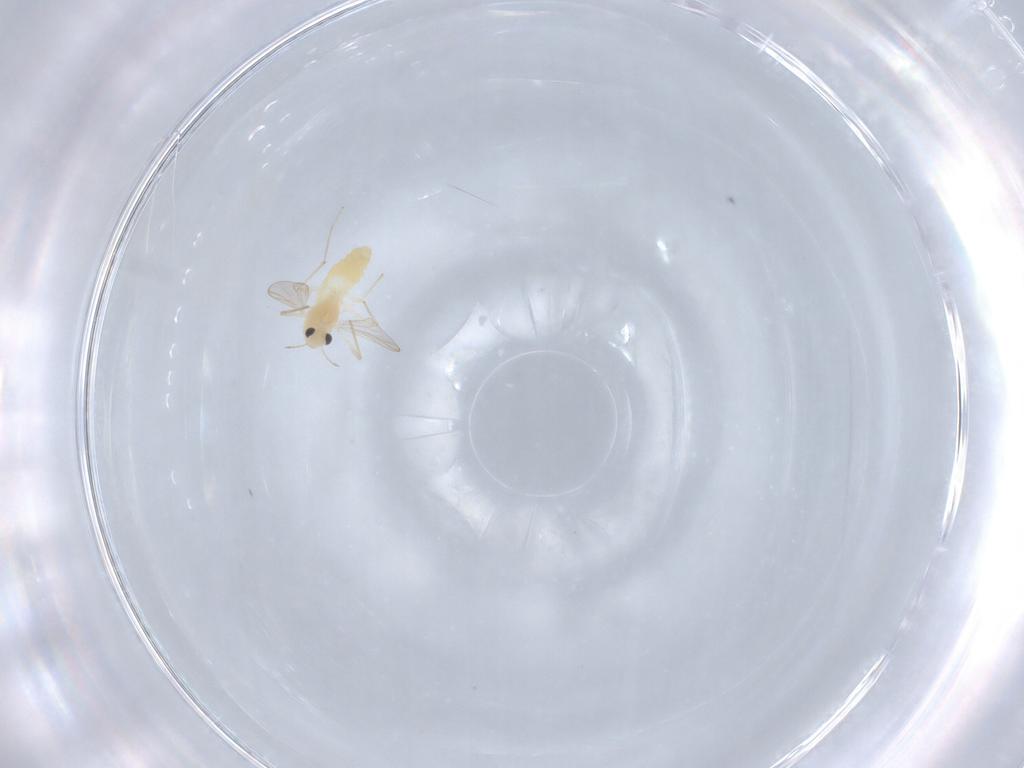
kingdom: Animalia
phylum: Arthropoda
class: Insecta
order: Diptera
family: Chironomidae
